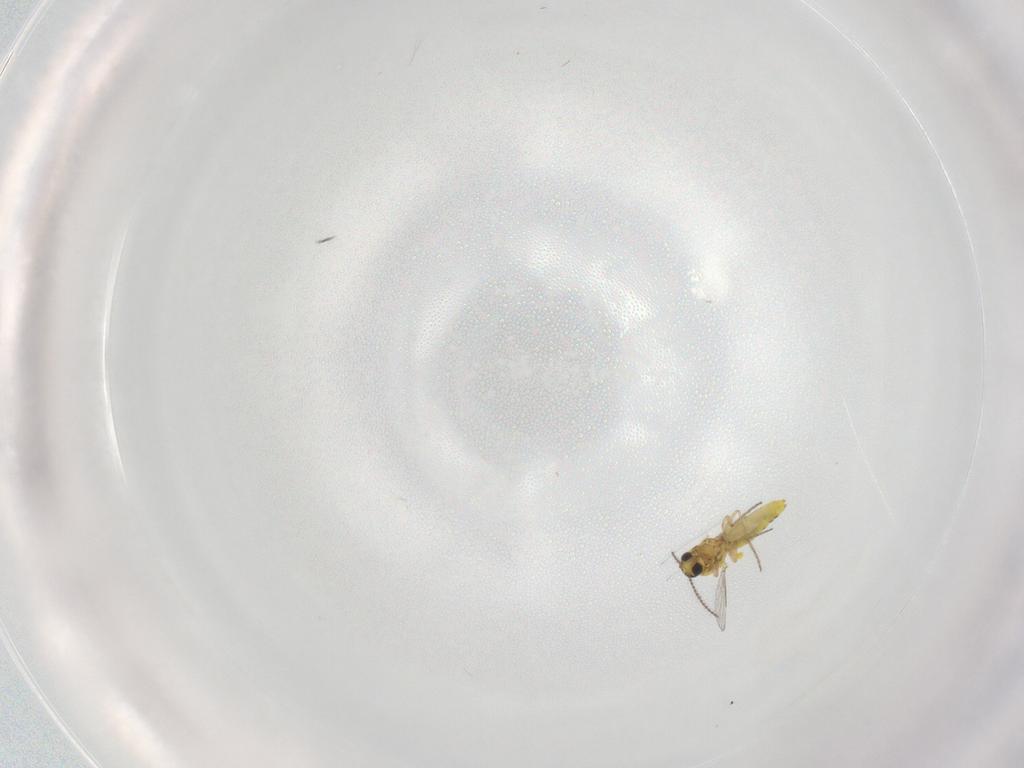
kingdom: Animalia
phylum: Arthropoda
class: Insecta
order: Diptera
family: Ceratopogonidae
